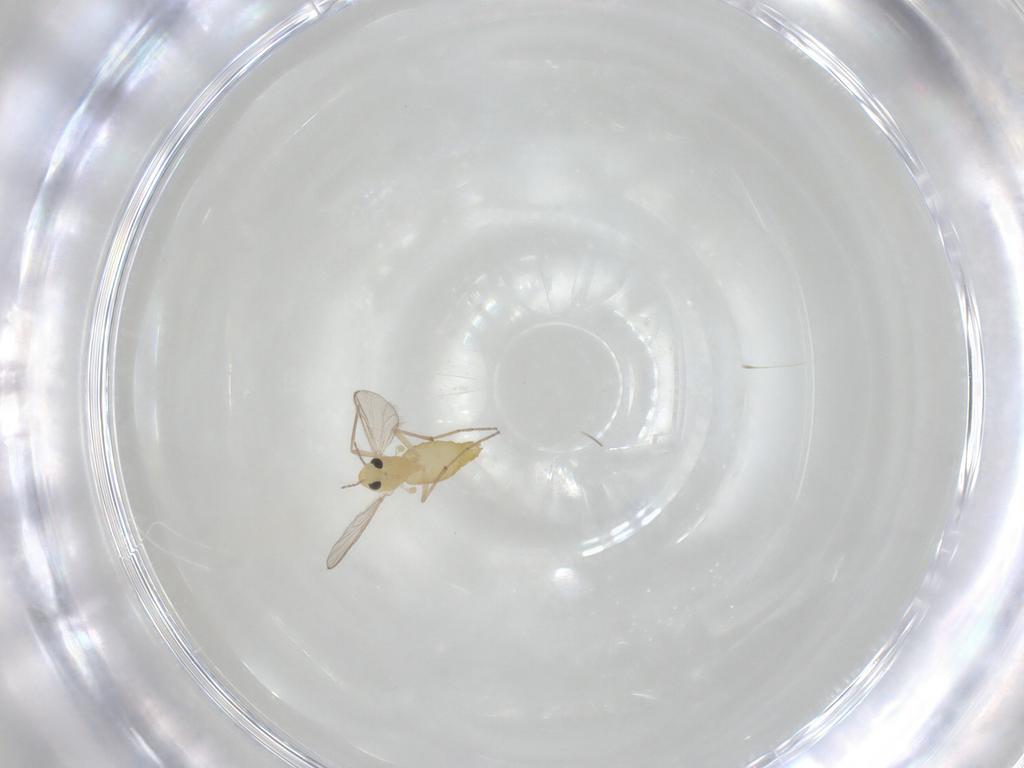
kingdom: Animalia
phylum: Arthropoda
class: Insecta
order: Diptera
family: Chironomidae
